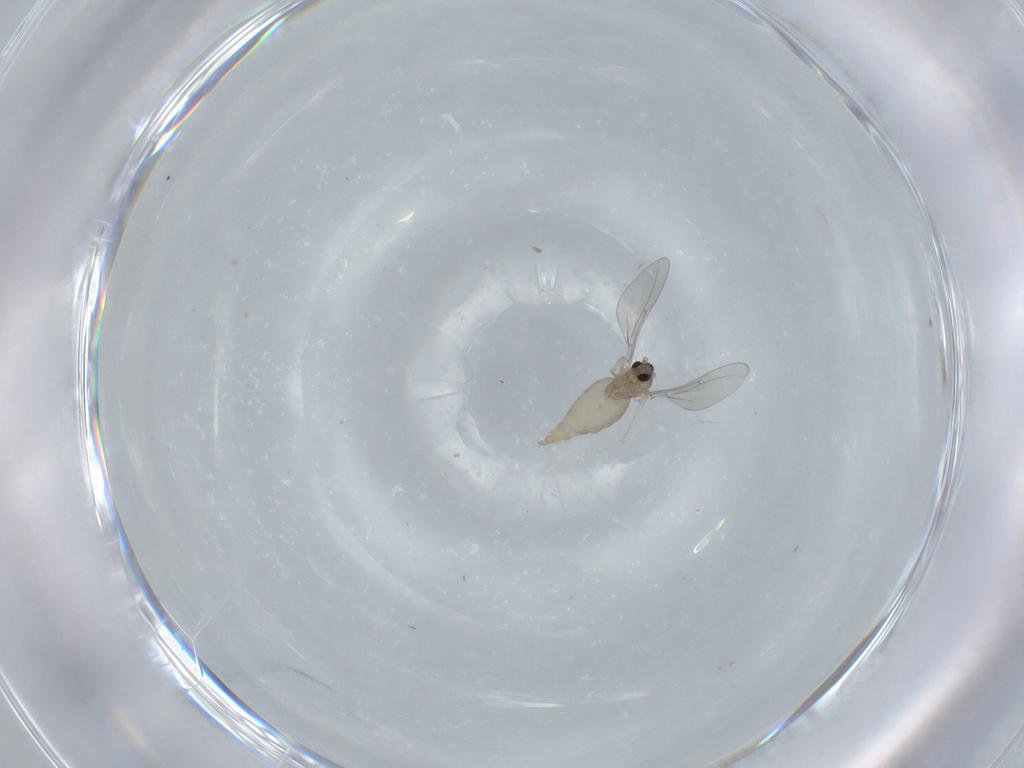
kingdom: Animalia
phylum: Arthropoda
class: Insecta
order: Diptera
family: Cecidomyiidae
